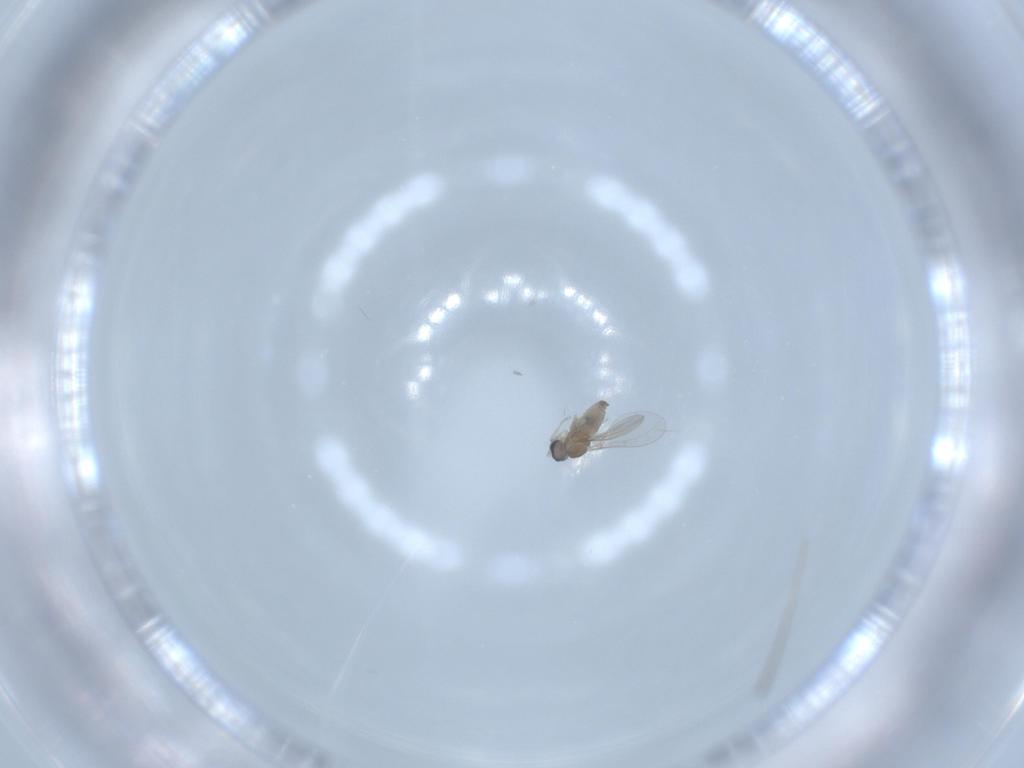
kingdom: Animalia
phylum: Arthropoda
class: Insecta
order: Diptera
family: Cecidomyiidae
